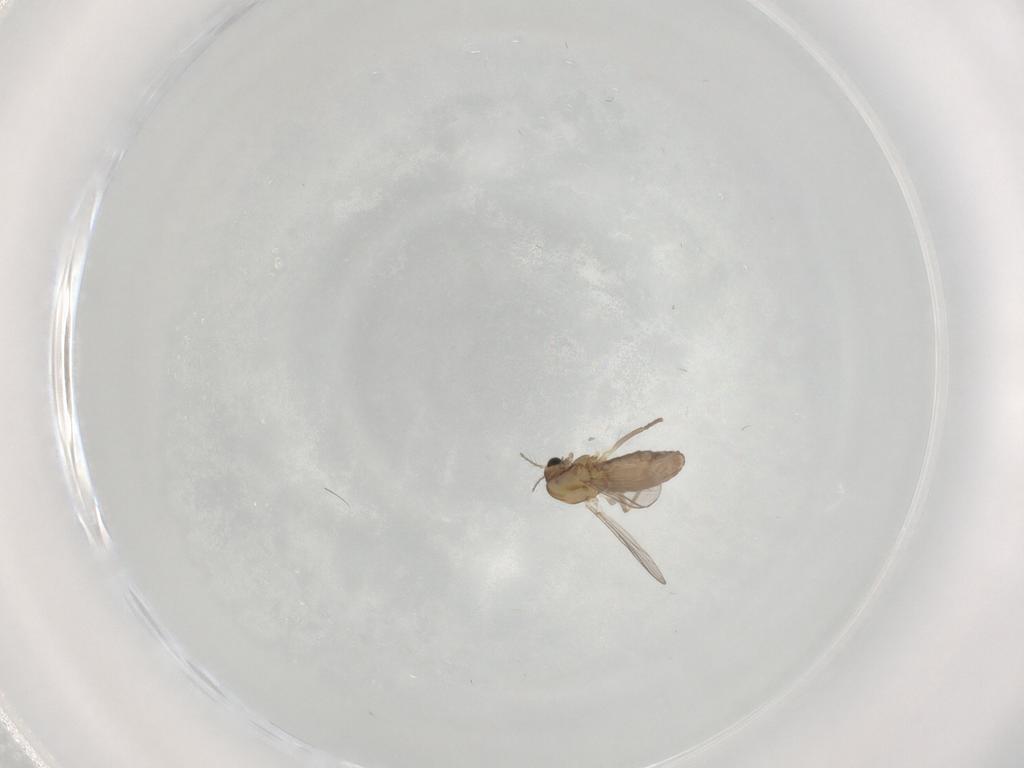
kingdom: Animalia
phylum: Arthropoda
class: Insecta
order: Diptera
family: Chironomidae
